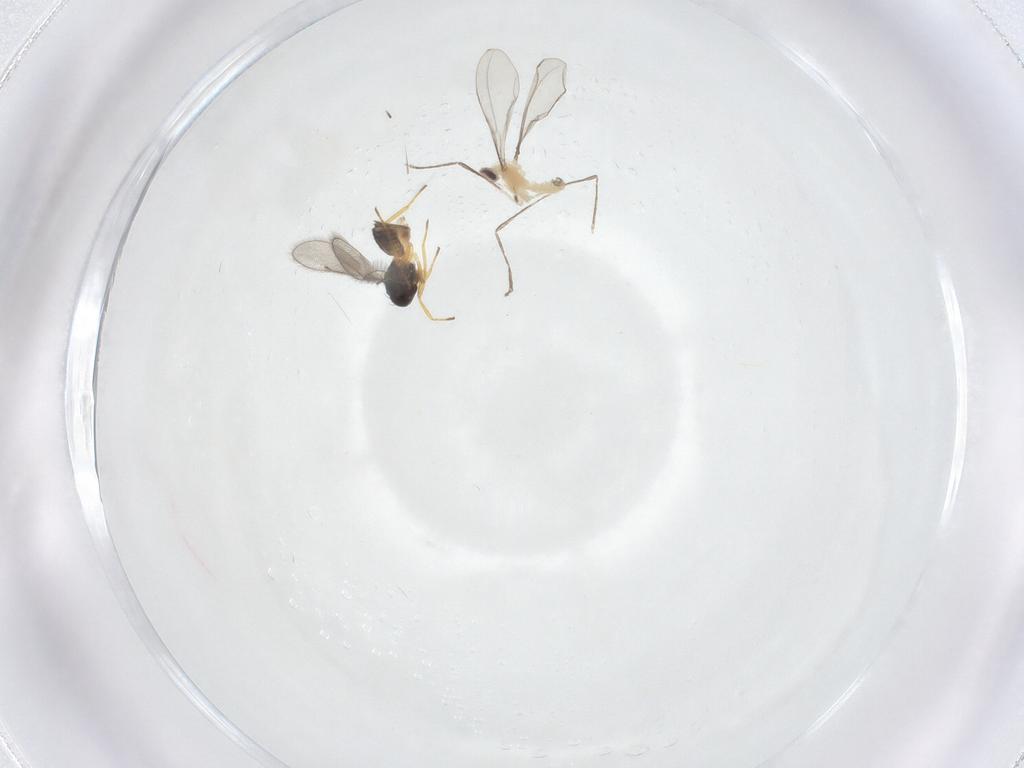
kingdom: Animalia
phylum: Arthropoda
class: Insecta
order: Diptera
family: Cecidomyiidae
